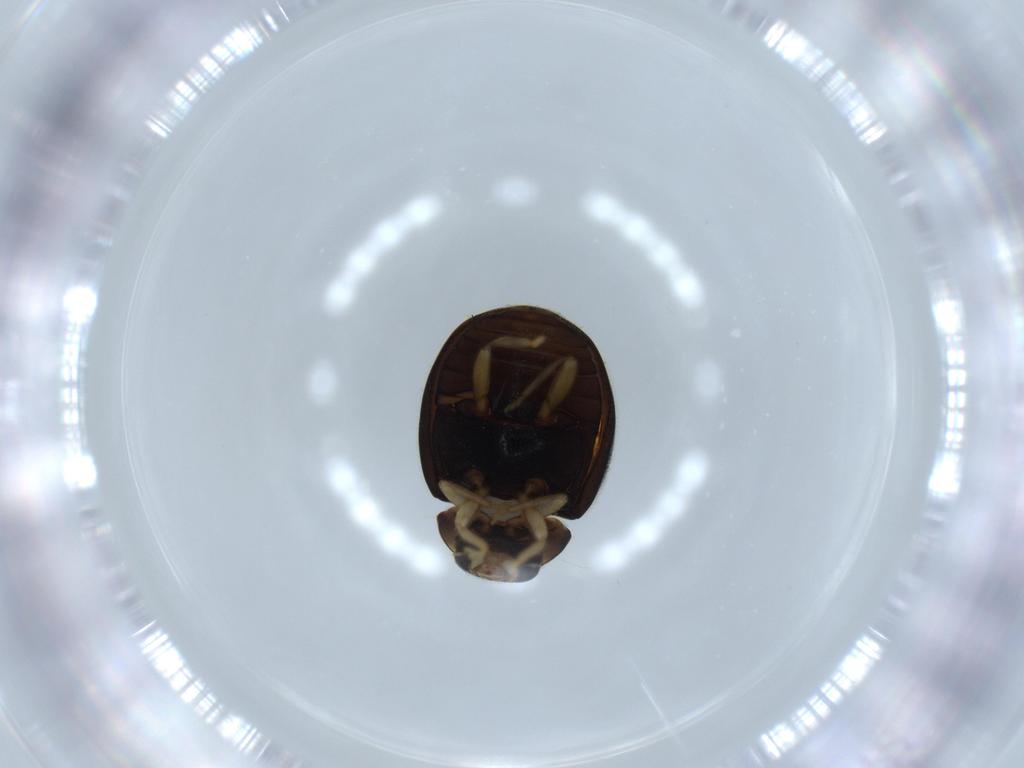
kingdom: Animalia
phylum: Arthropoda
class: Insecta
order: Coleoptera
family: Coccinellidae
